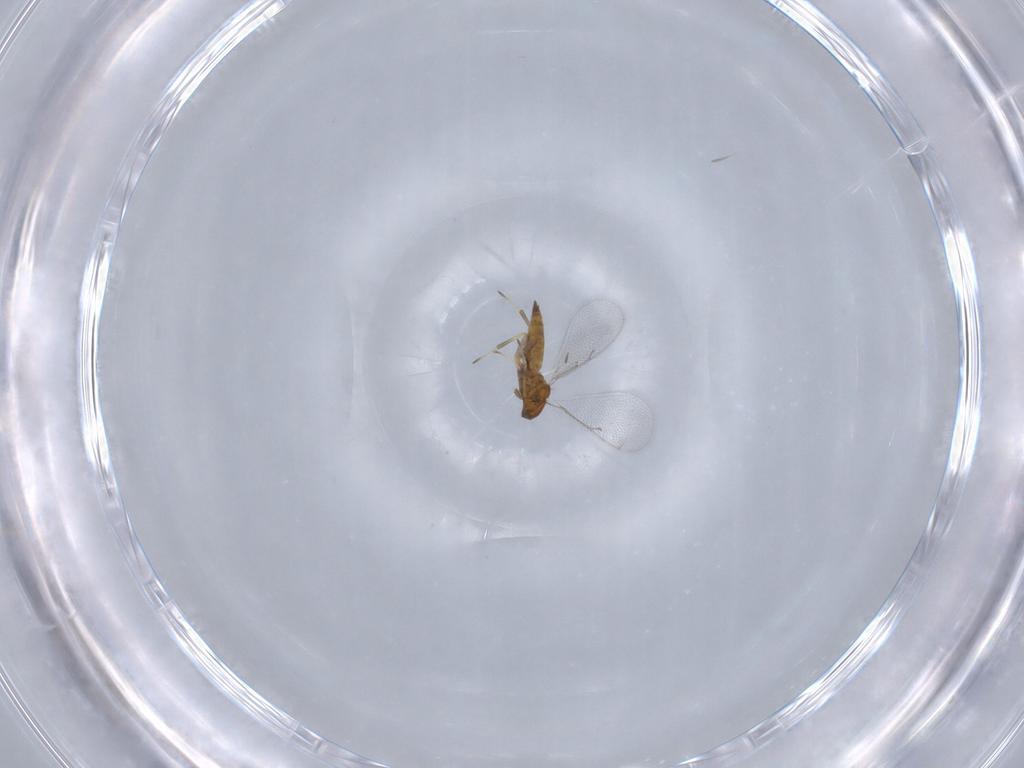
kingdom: Animalia
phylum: Arthropoda
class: Insecta
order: Hymenoptera
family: Eulophidae
